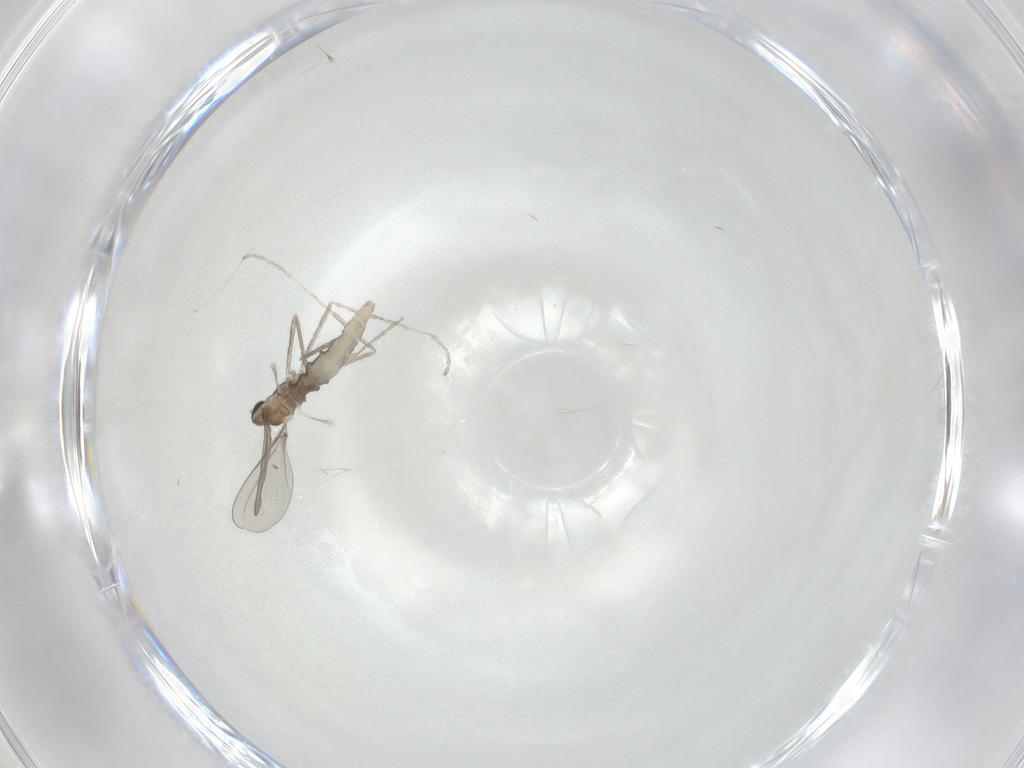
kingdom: Animalia
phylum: Arthropoda
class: Insecta
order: Diptera
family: Cecidomyiidae
